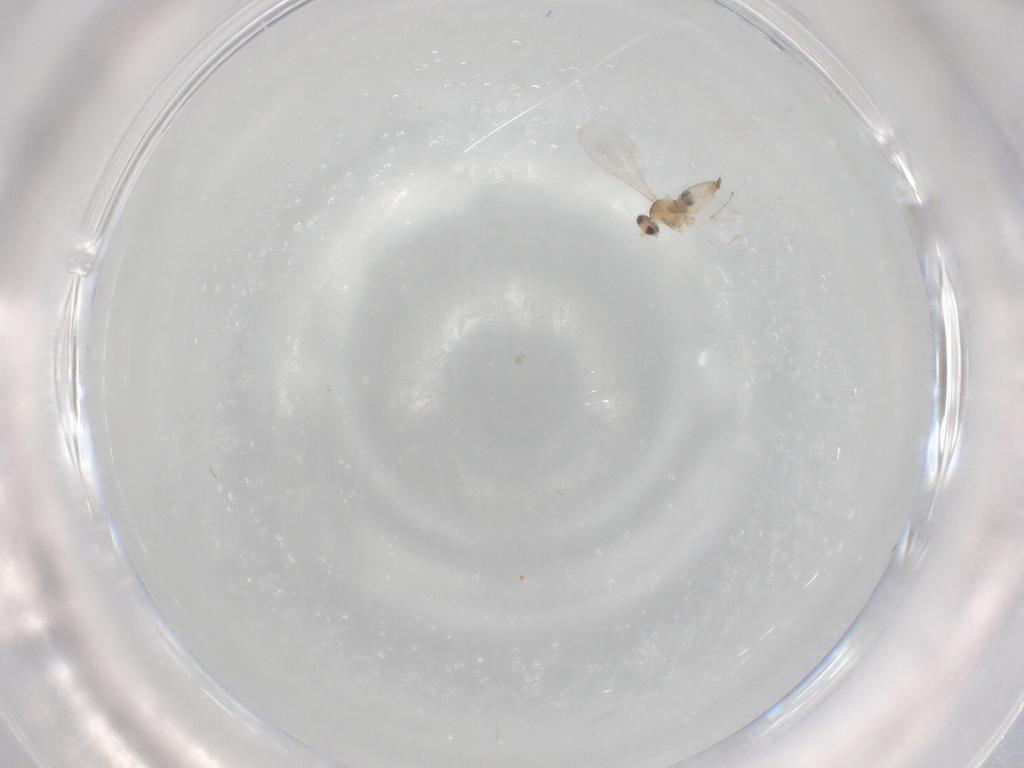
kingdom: Animalia
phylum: Arthropoda
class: Insecta
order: Diptera
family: Cecidomyiidae
